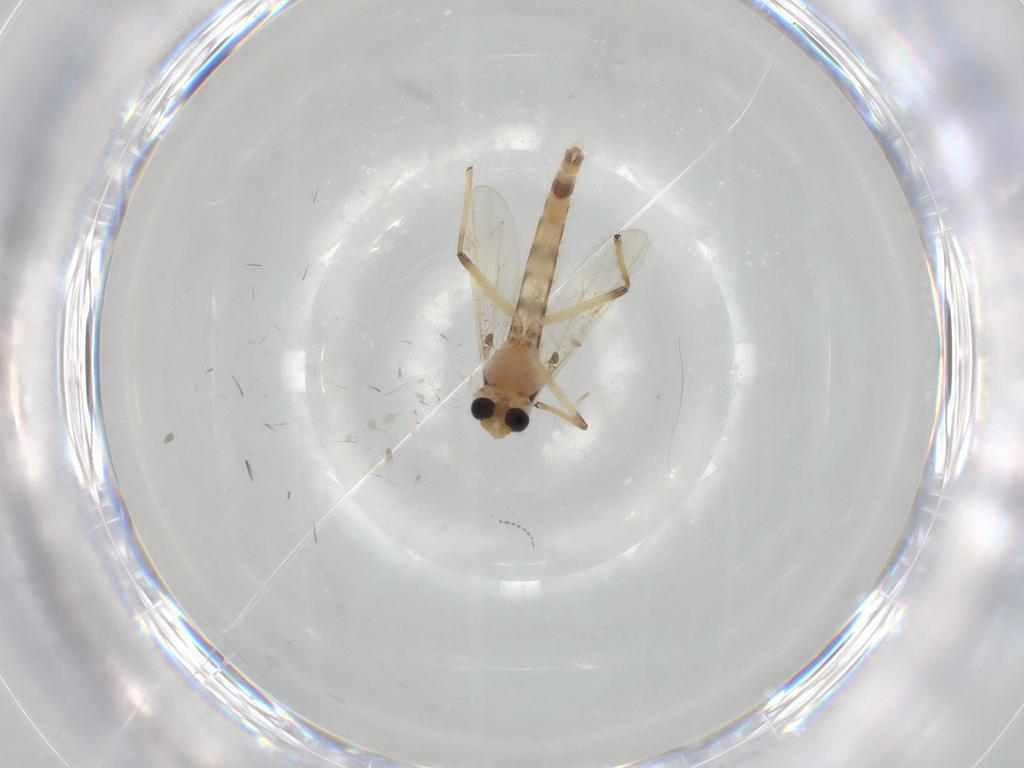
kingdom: Animalia
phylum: Arthropoda
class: Insecta
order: Diptera
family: Chironomidae
